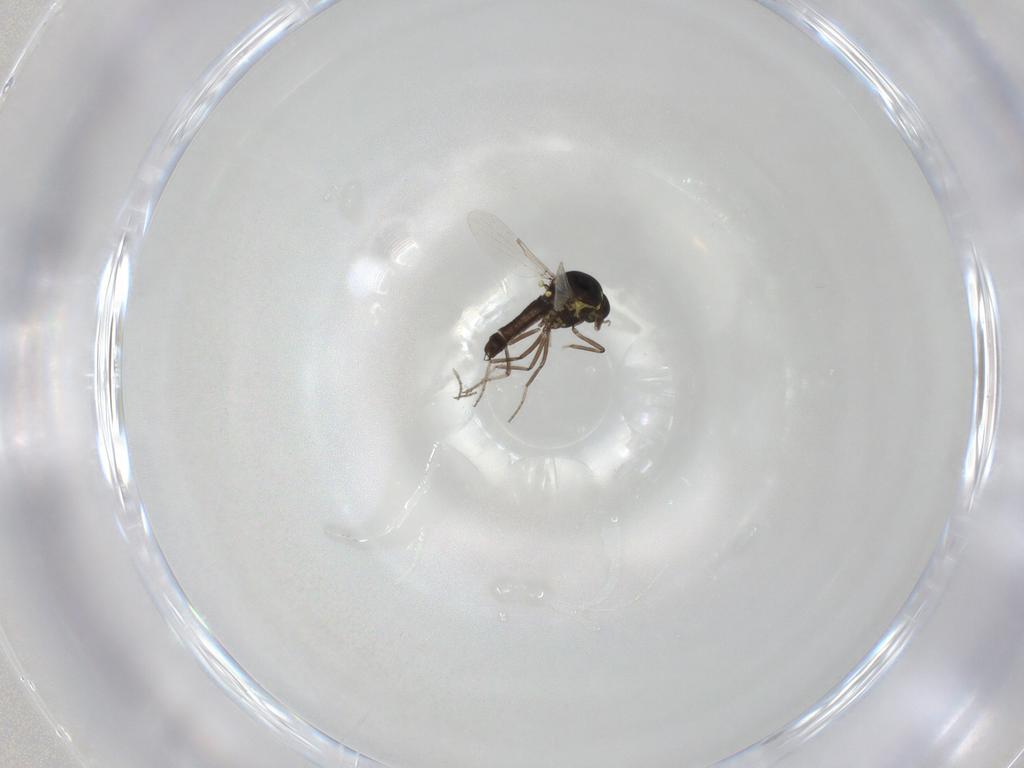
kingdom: Animalia
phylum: Arthropoda
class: Insecta
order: Diptera
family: Ceratopogonidae
